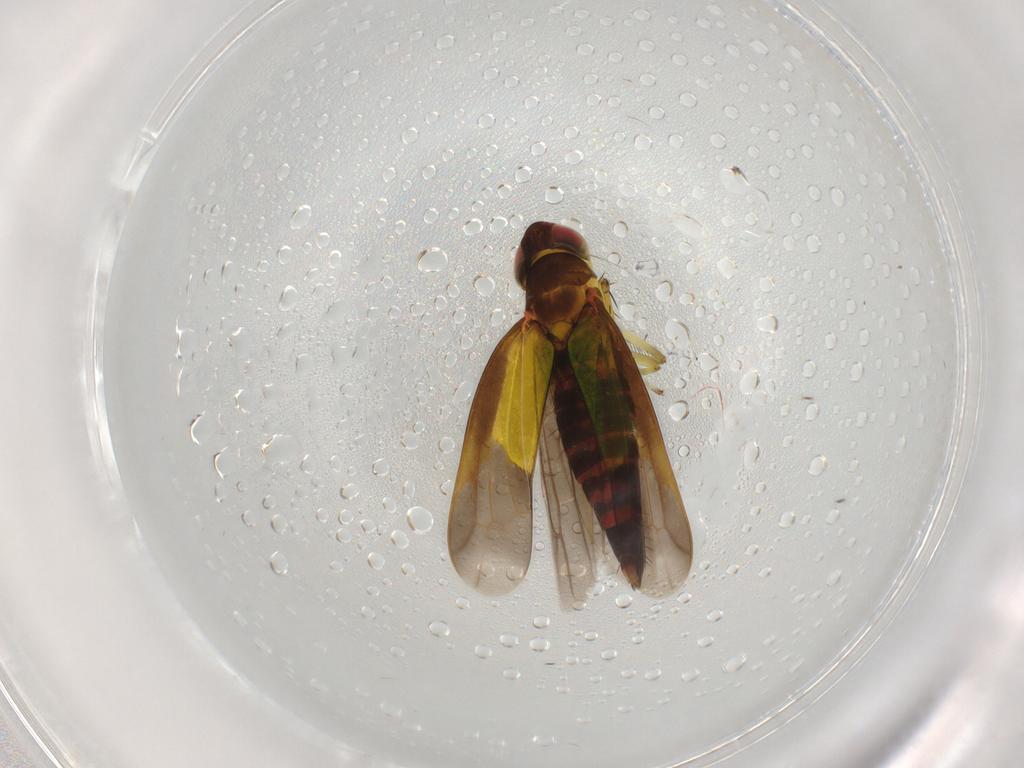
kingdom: Animalia
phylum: Arthropoda
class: Insecta
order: Hemiptera
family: Cicadellidae
